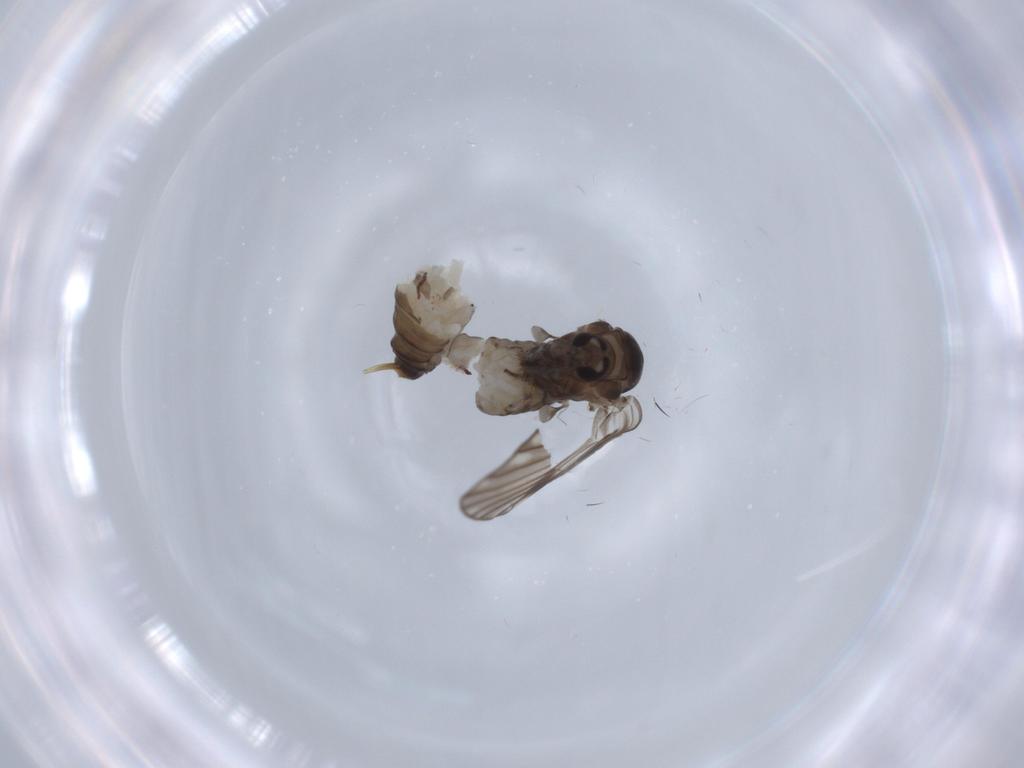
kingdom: Animalia
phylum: Arthropoda
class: Insecta
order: Diptera
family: Psychodidae
